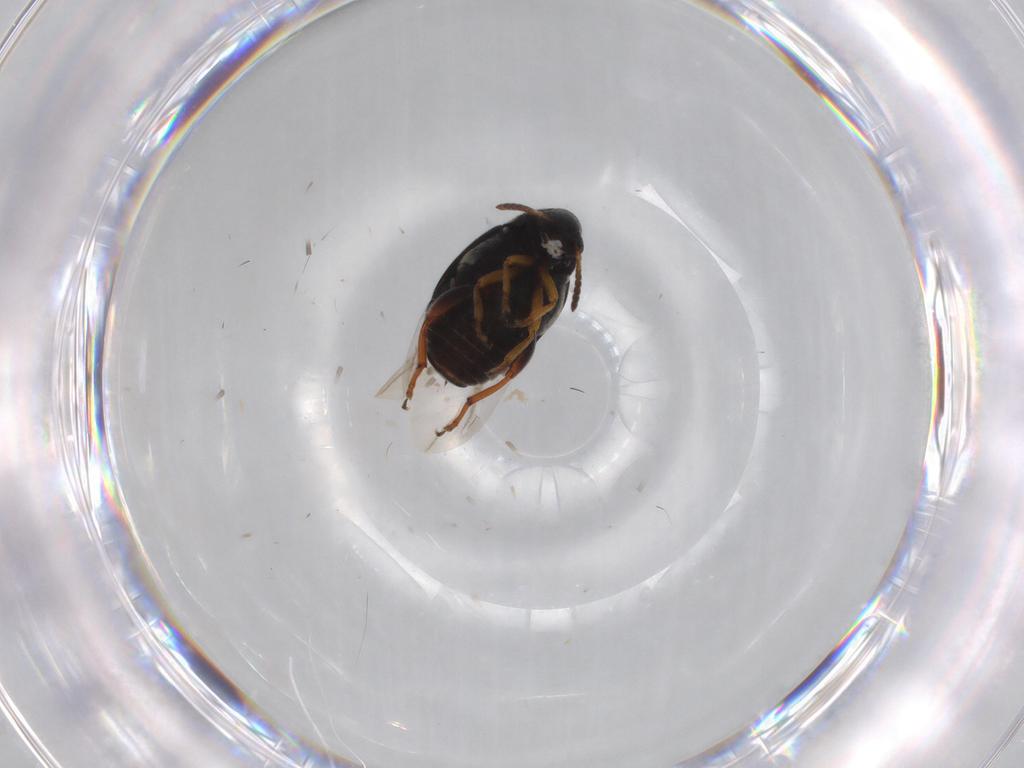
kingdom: Animalia
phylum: Arthropoda
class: Insecta
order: Coleoptera
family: Chrysomelidae
